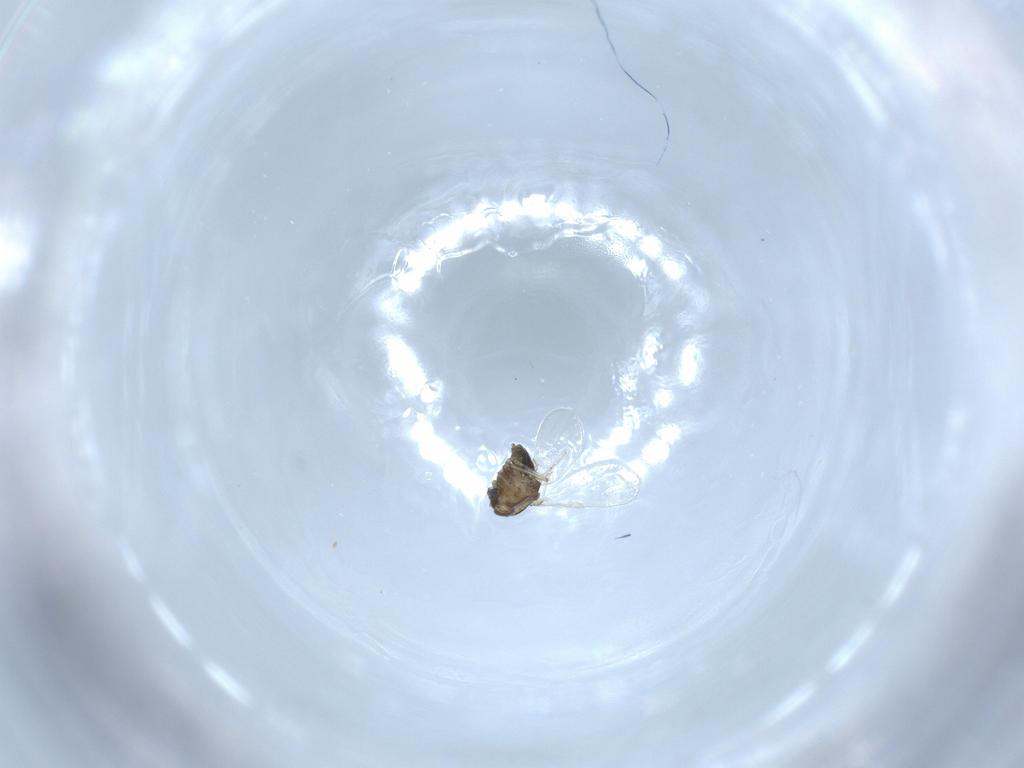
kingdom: Animalia
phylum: Arthropoda
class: Insecta
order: Diptera
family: Chironomidae
